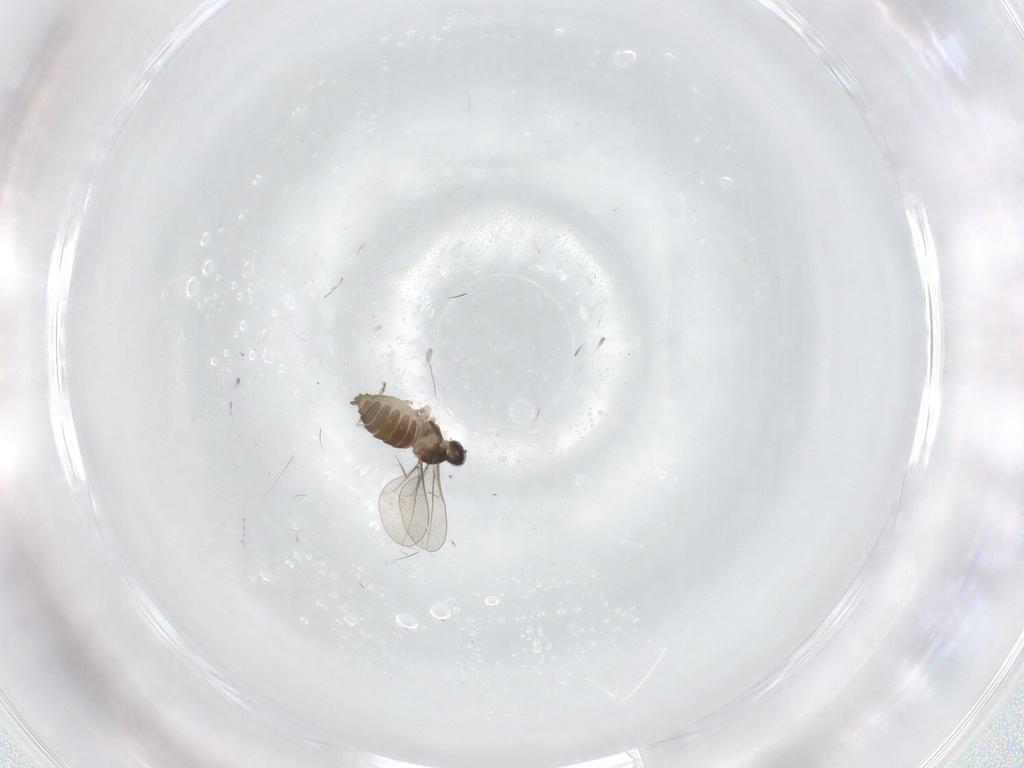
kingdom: Animalia
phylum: Arthropoda
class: Insecta
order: Diptera
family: Cecidomyiidae
